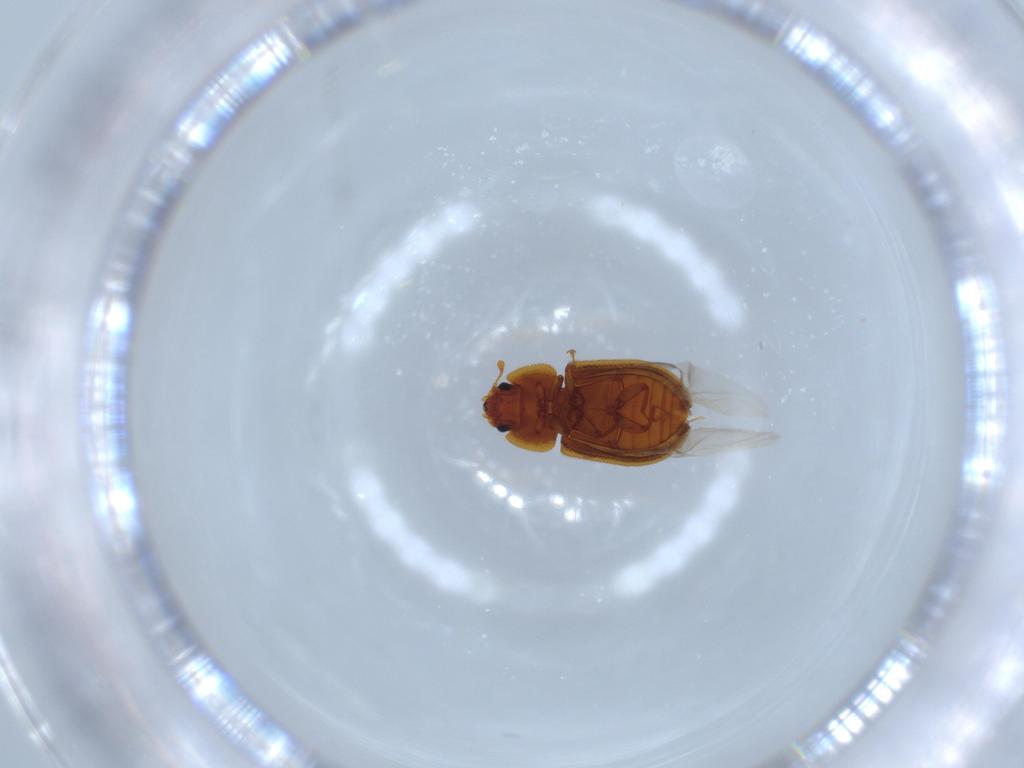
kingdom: Animalia
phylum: Arthropoda
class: Insecta
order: Coleoptera
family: Zopheridae
